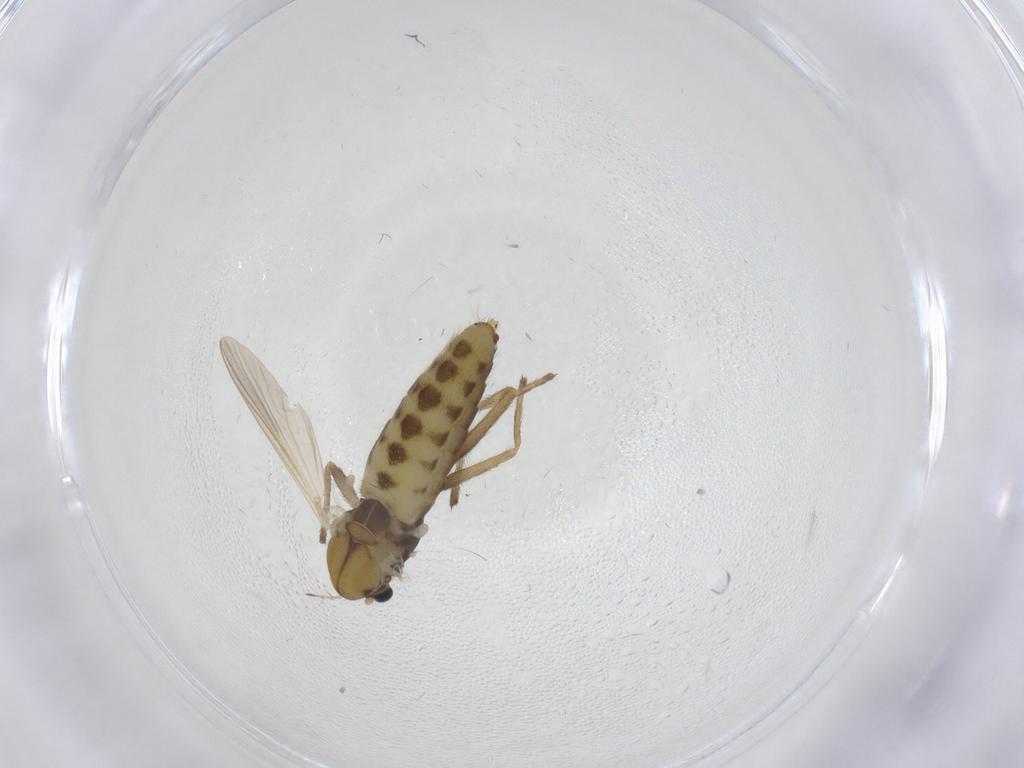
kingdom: Animalia
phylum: Arthropoda
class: Insecta
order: Diptera
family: Chironomidae
